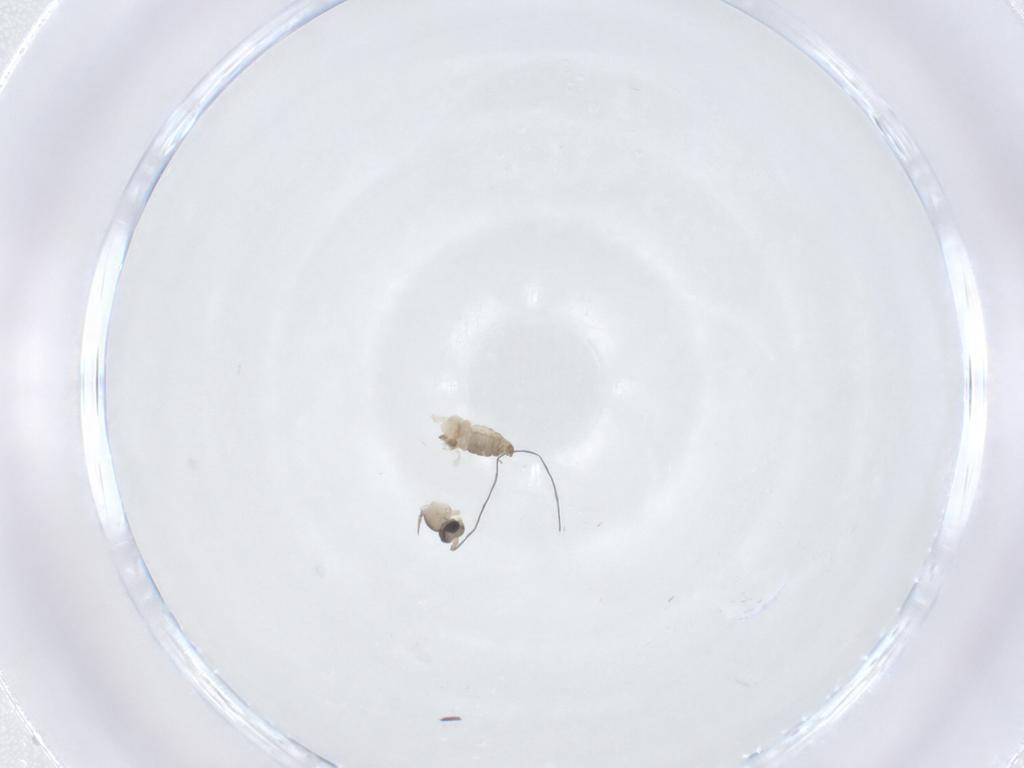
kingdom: Animalia
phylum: Arthropoda
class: Insecta
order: Diptera
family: Cecidomyiidae
